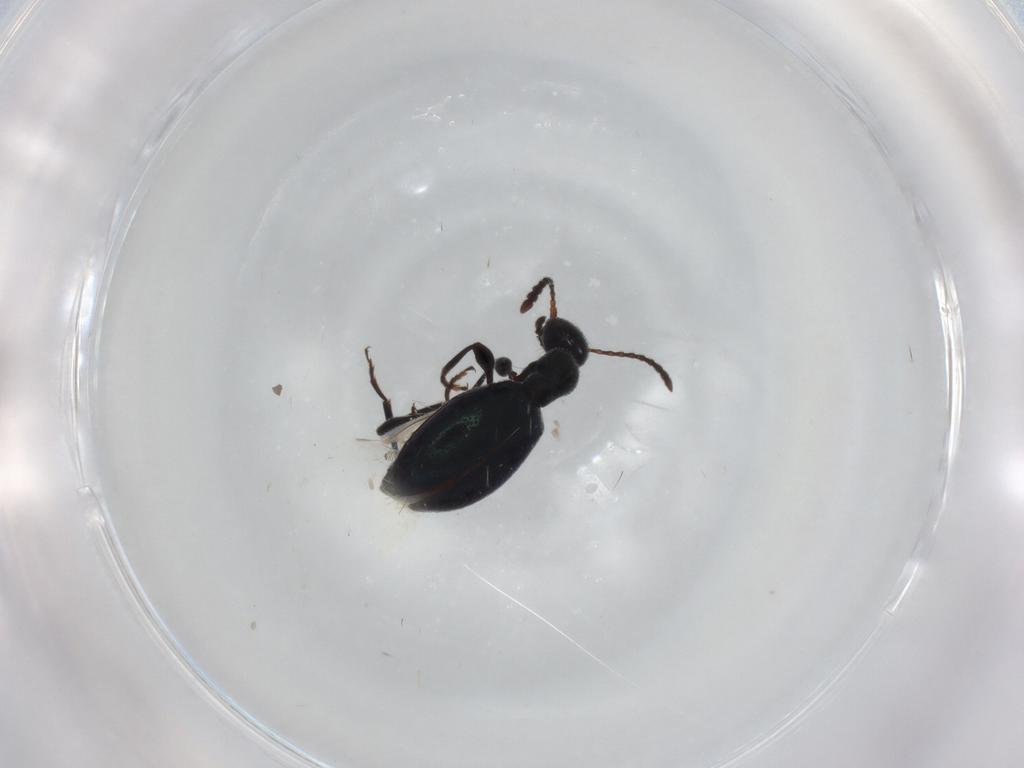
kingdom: Animalia
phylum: Arthropoda
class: Insecta
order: Coleoptera
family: Anthicidae
